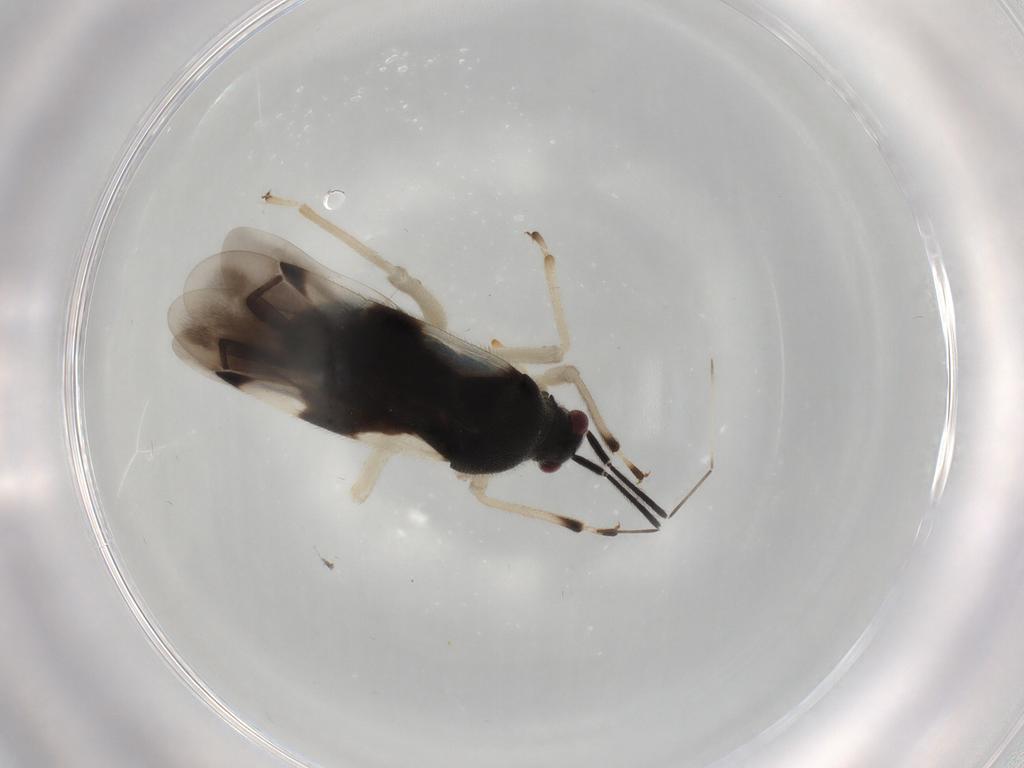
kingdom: Animalia
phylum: Arthropoda
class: Insecta
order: Hemiptera
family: Miridae
